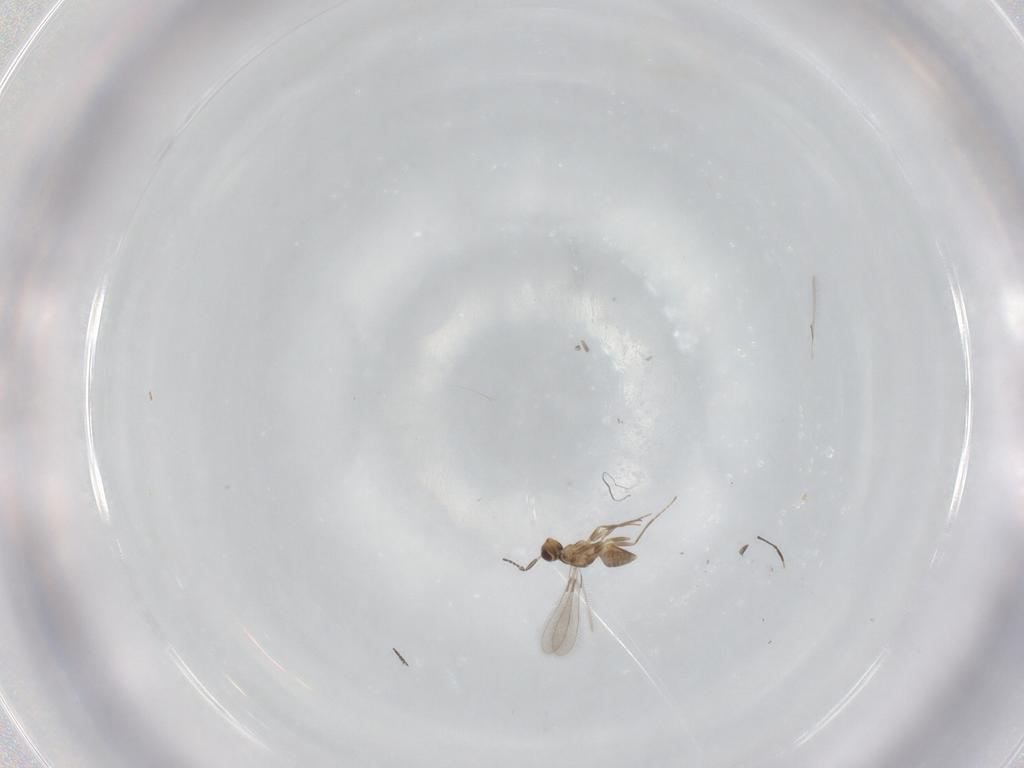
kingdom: Animalia
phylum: Arthropoda
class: Insecta
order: Hymenoptera
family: Mymaridae
